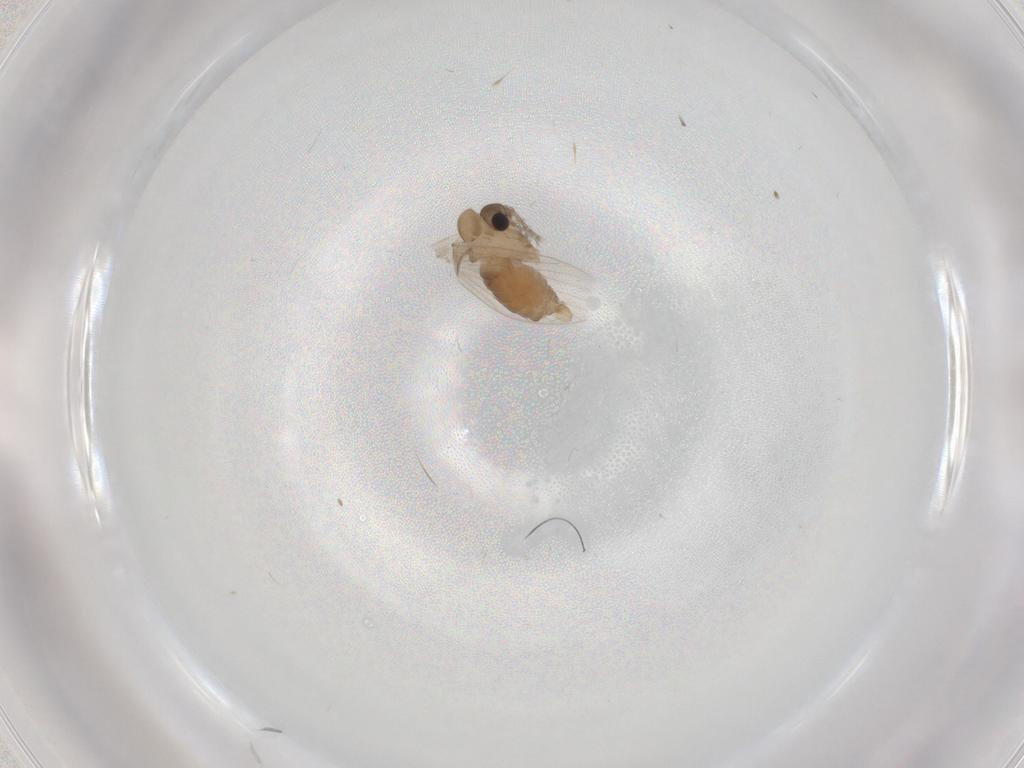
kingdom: Animalia
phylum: Arthropoda
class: Insecta
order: Diptera
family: Psychodidae
